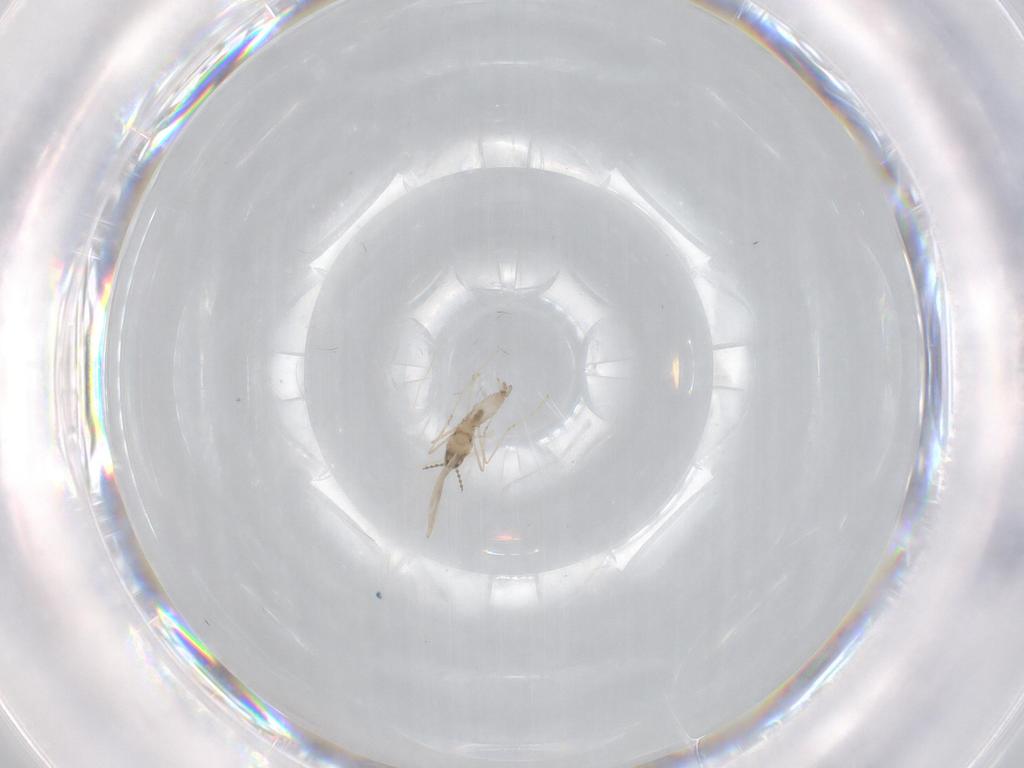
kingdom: Animalia
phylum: Arthropoda
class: Insecta
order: Diptera
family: Cecidomyiidae
